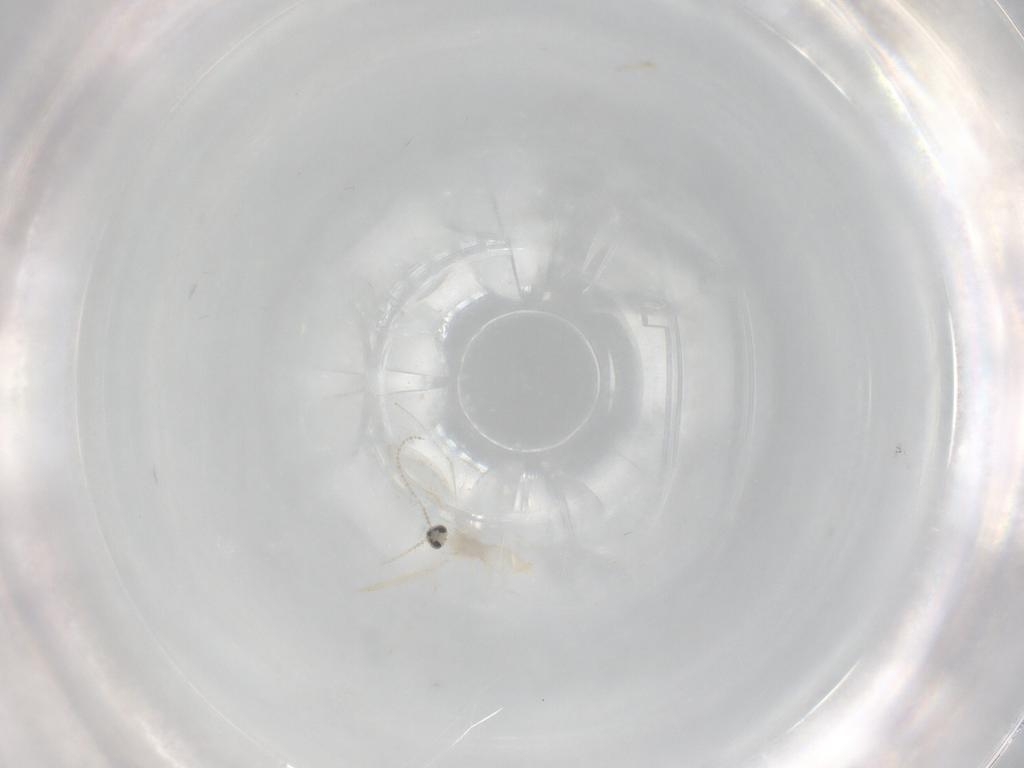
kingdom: Animalia
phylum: Arthropoda
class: Insecta
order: Diptera
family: Cecidomyiidae
